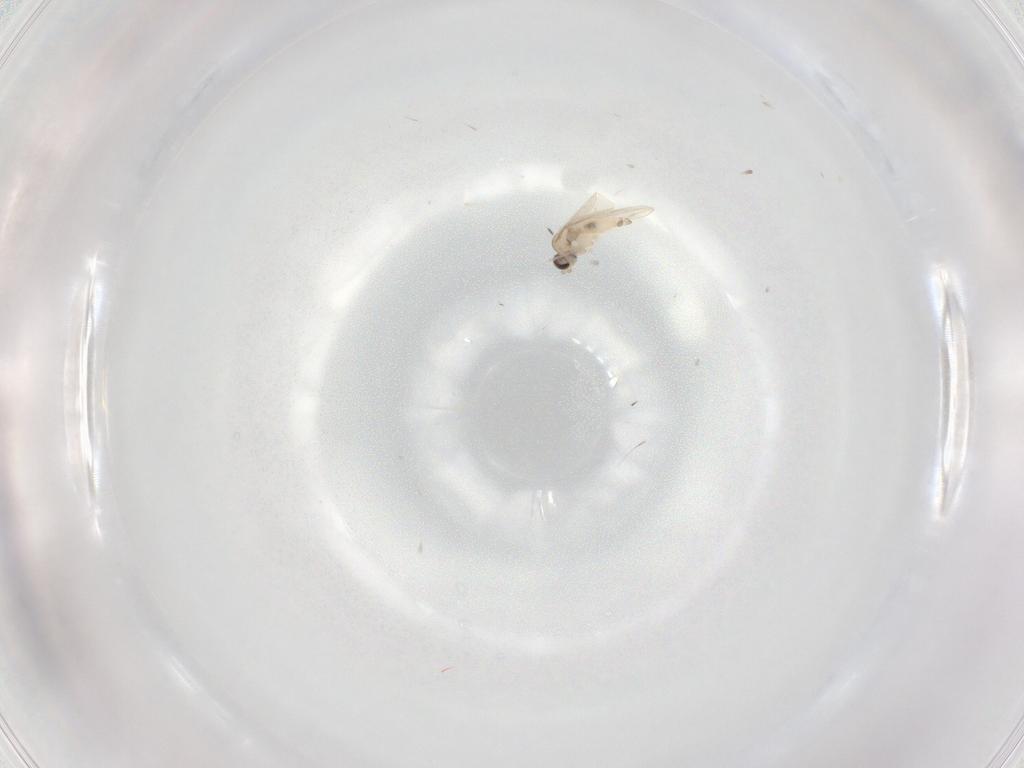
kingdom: Animalia
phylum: Arthropoda
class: Insecta
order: Diptera
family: Cecidomyiidae
